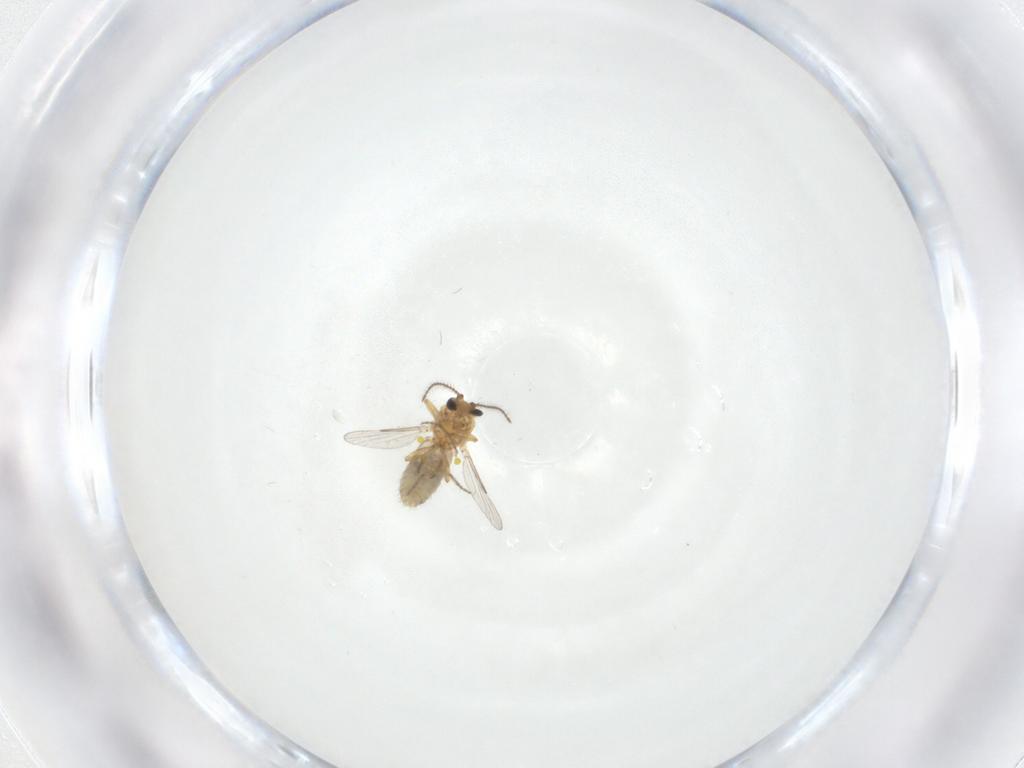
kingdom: Animalia
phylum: Arthropoda
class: Insecta
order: Diptera
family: Ceratopogonidae
